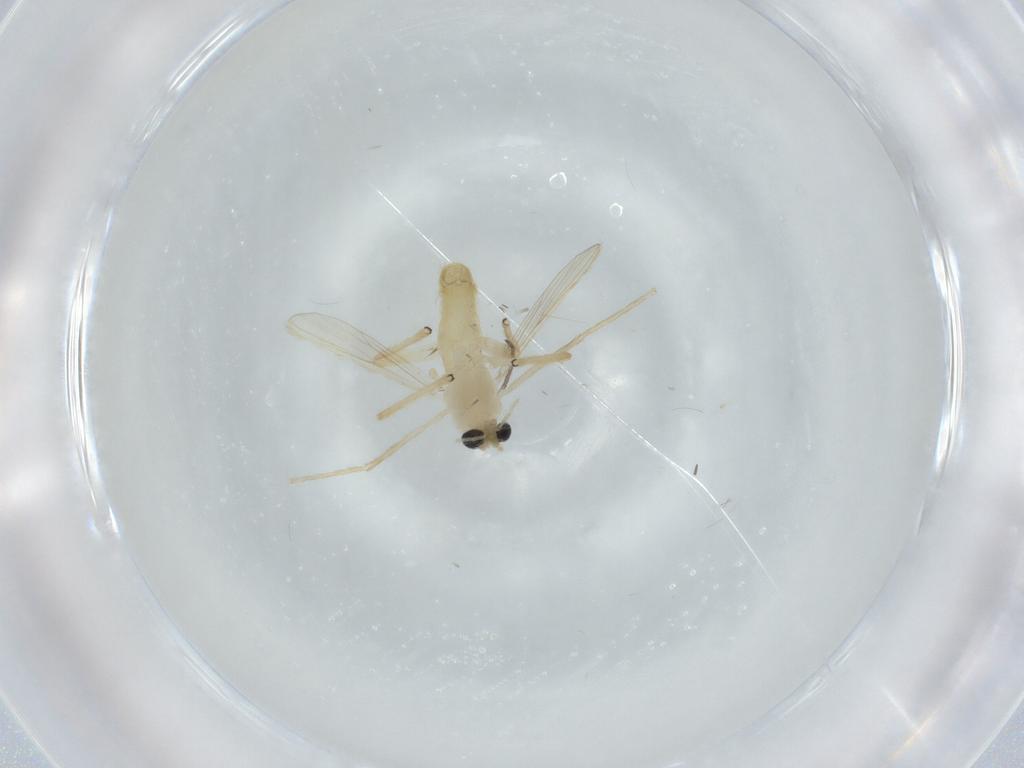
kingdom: Animalia
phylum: Arthropoda
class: Insecta
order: Diptera
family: Chironomidae
